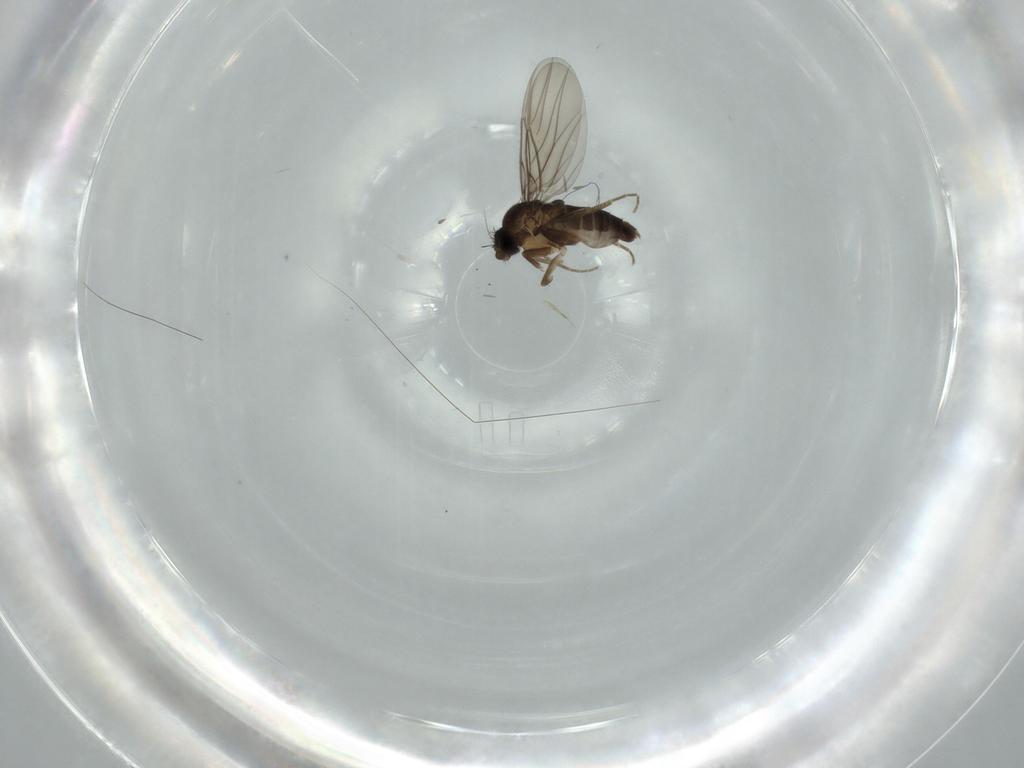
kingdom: Animalia
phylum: Arthropoda
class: Insecta
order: Diptera
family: Phoridae
